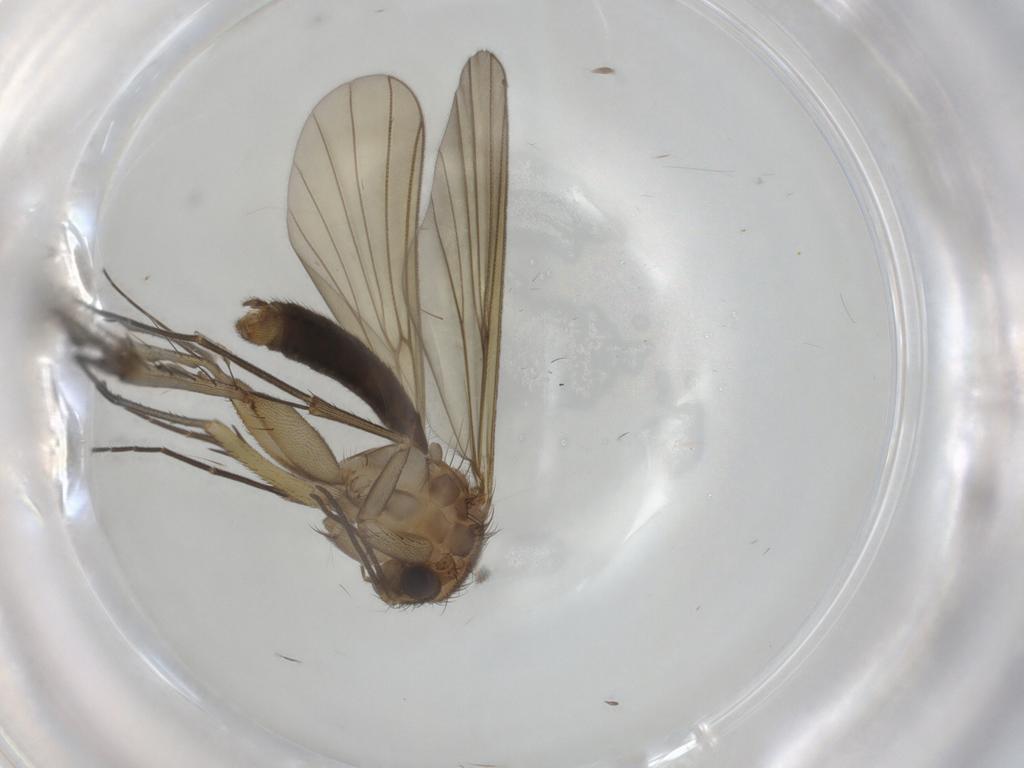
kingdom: Animalia
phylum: Arthropoda
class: Insecta
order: Diptera
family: Mycetophilidae
